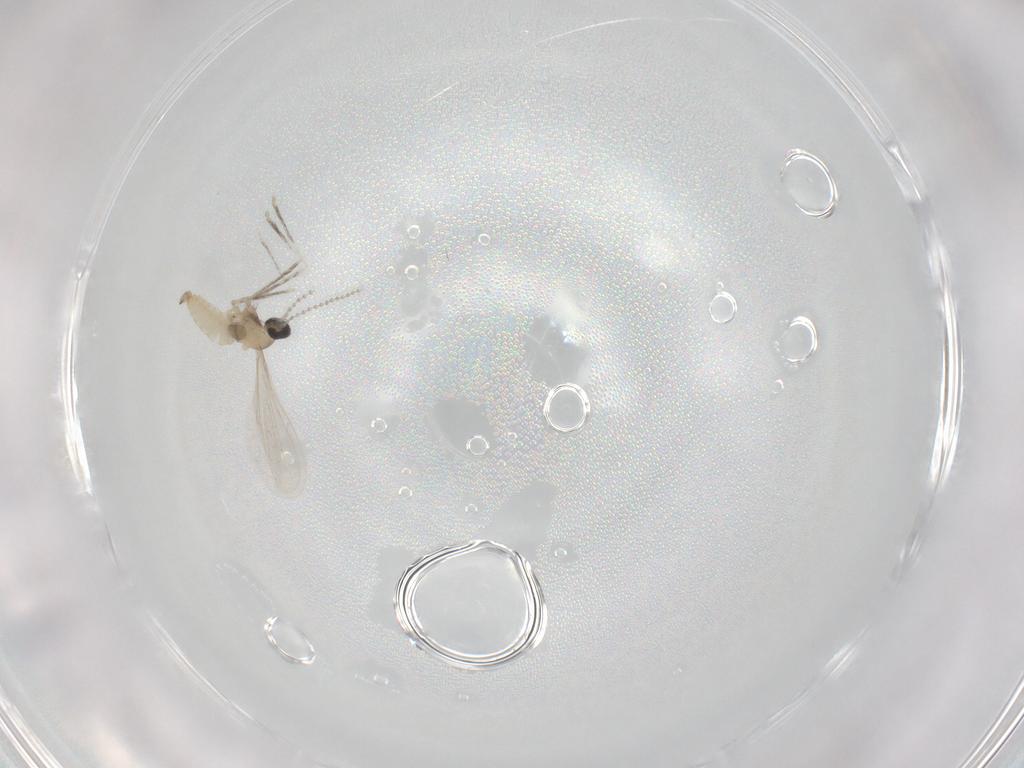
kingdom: Animalia
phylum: Arthropoda
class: Insecta
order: Diptera
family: Cecidomyiidae
